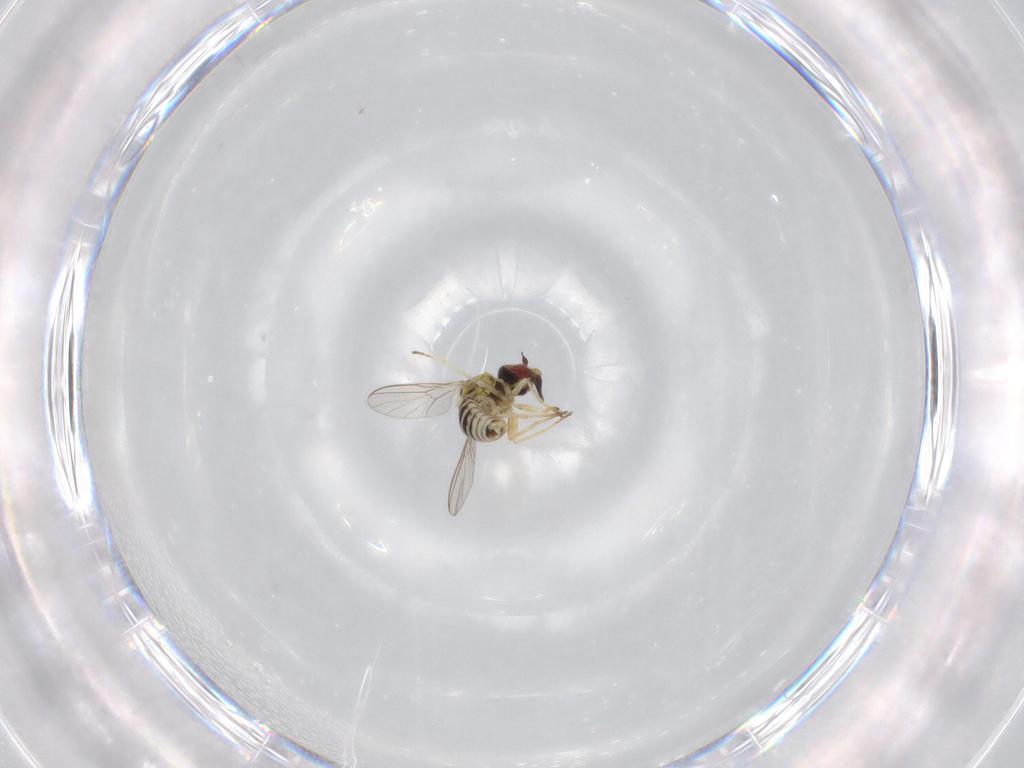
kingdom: Animalia
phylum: Arthropoda
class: Insecta
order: Diptera
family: Bombyliidae
